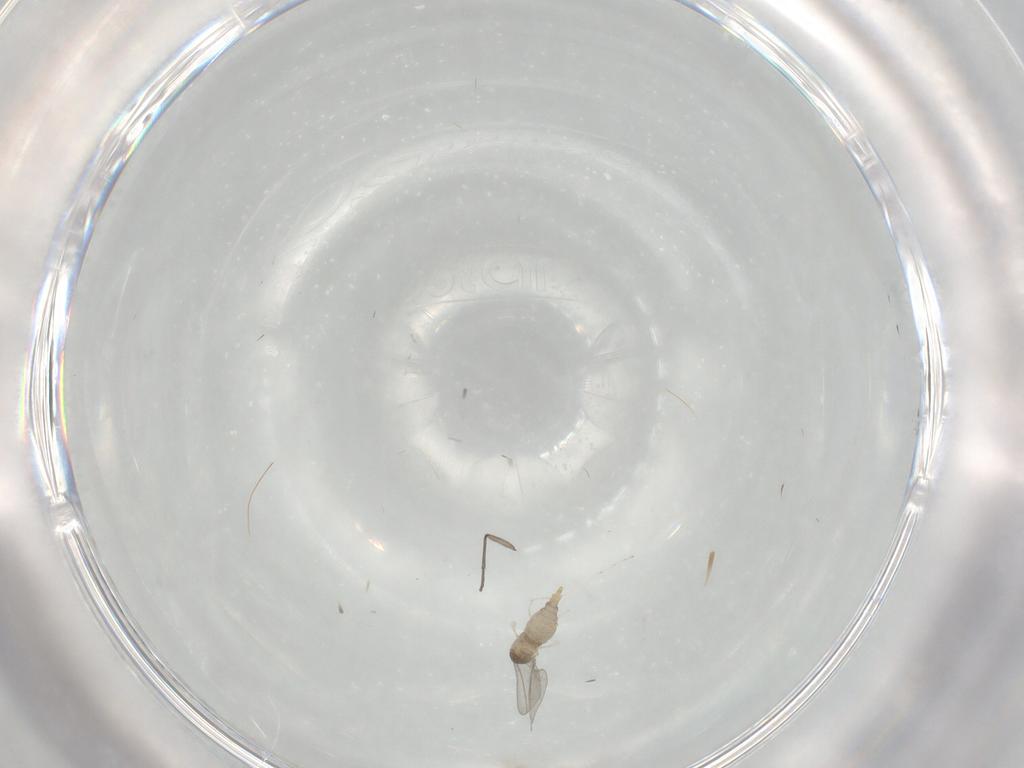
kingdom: Animalia
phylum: Arthropoda
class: Insecta
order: Diptera
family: Cecidomyiidae
